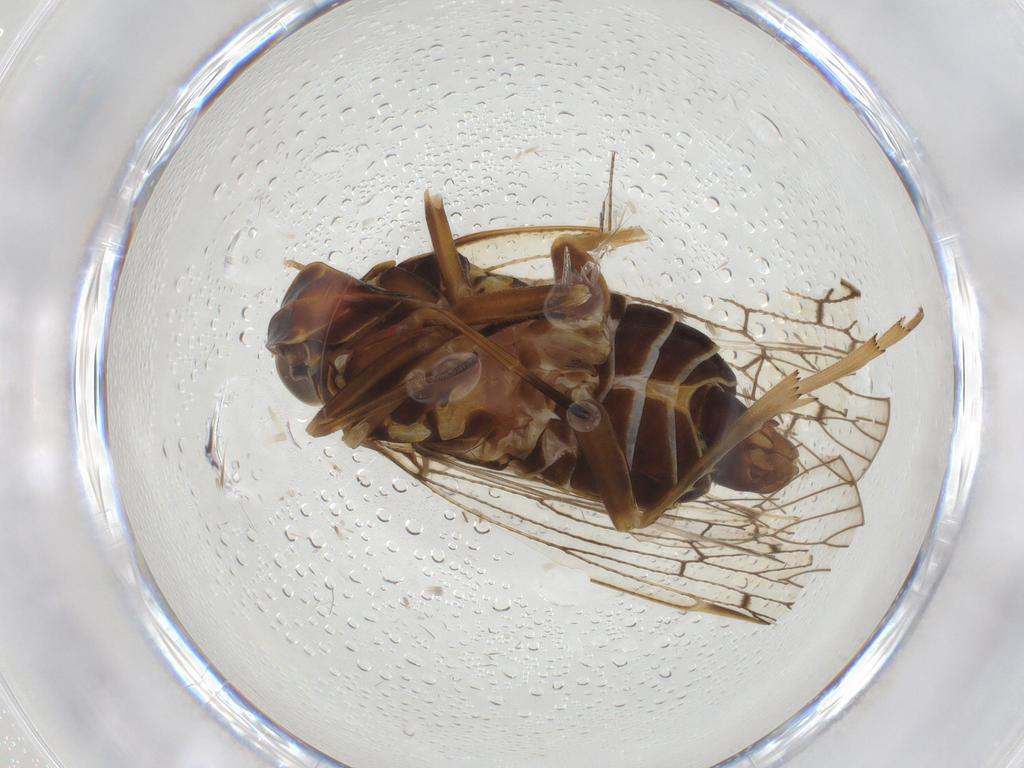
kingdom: Animalia
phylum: Arthropoda
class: Insecta
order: Hemiptera
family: Cixiidae
